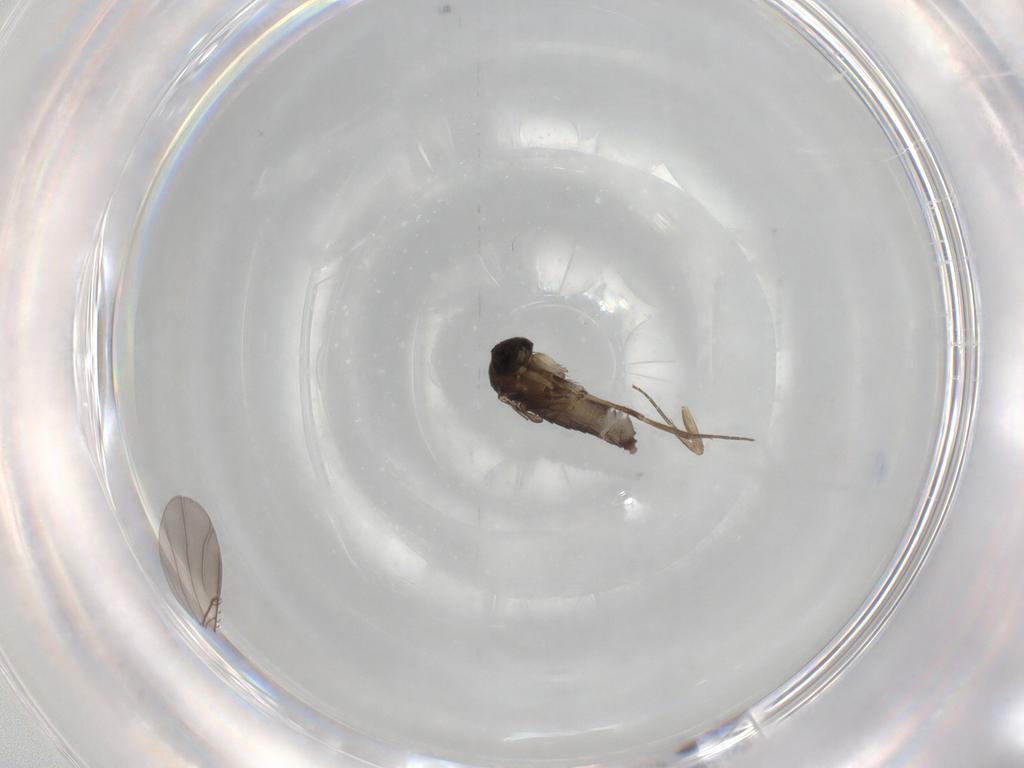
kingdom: Animalia
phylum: Arthropoda
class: Insecta
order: Diptera
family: Phoridae
